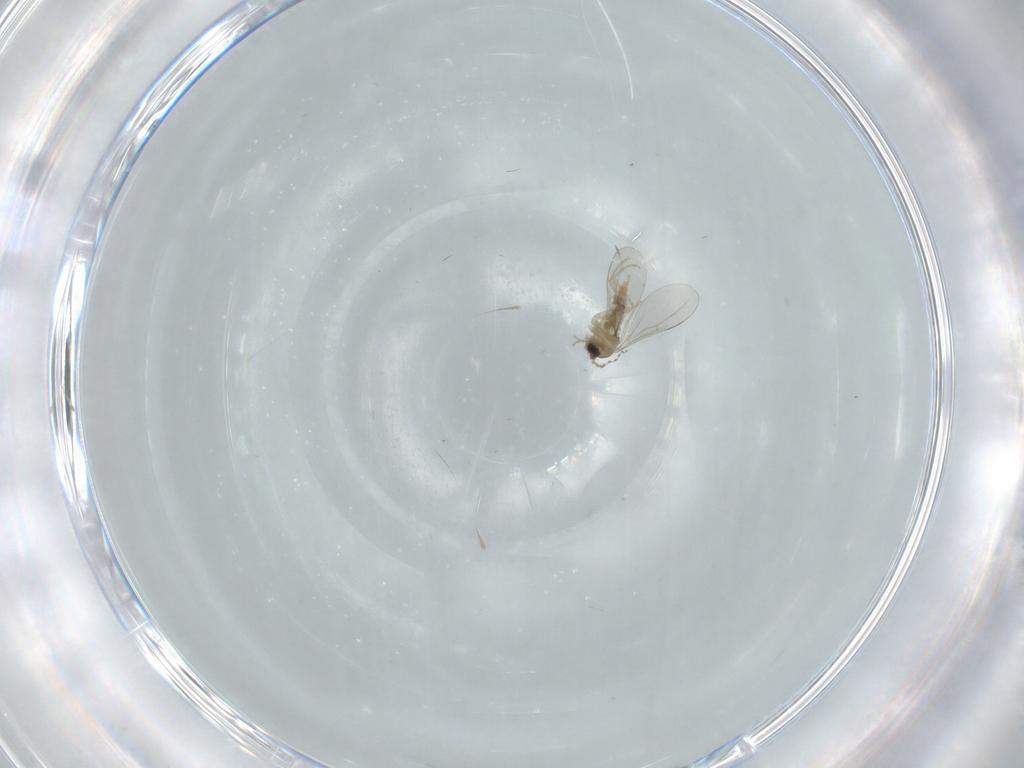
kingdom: Animalia
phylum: Arthropoda
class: Insecta
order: Diptera
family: Cecidomyiidae
